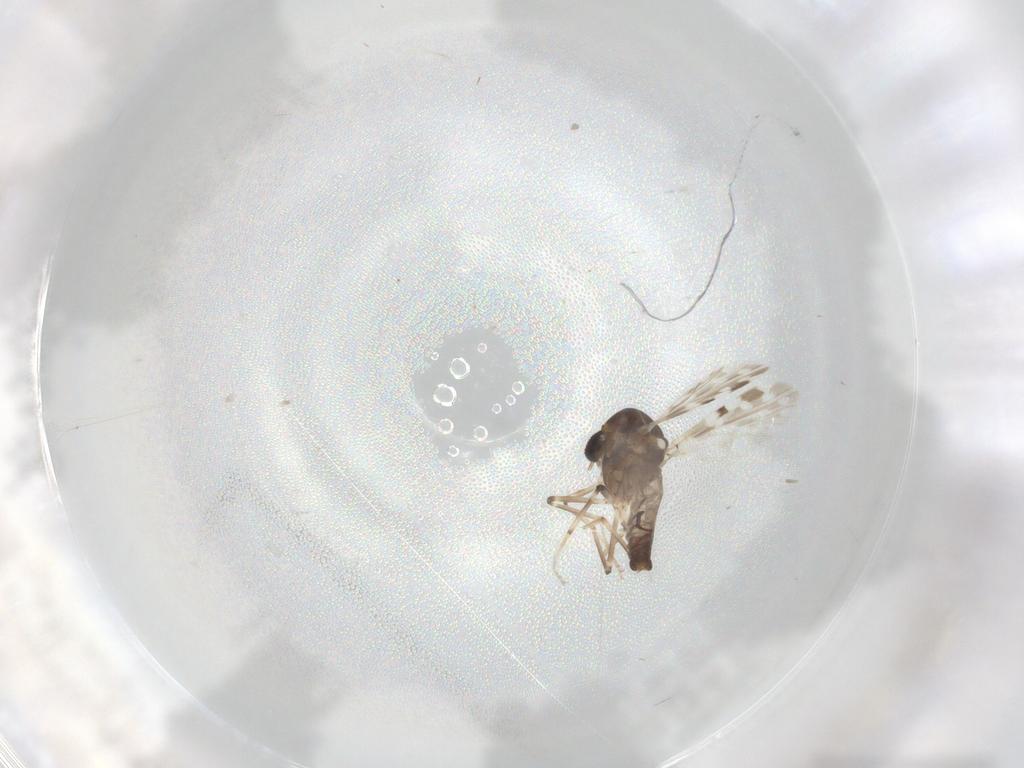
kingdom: Animalia
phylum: Arthropoda
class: Insecta
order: Diptera
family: Ceratopogonidae
